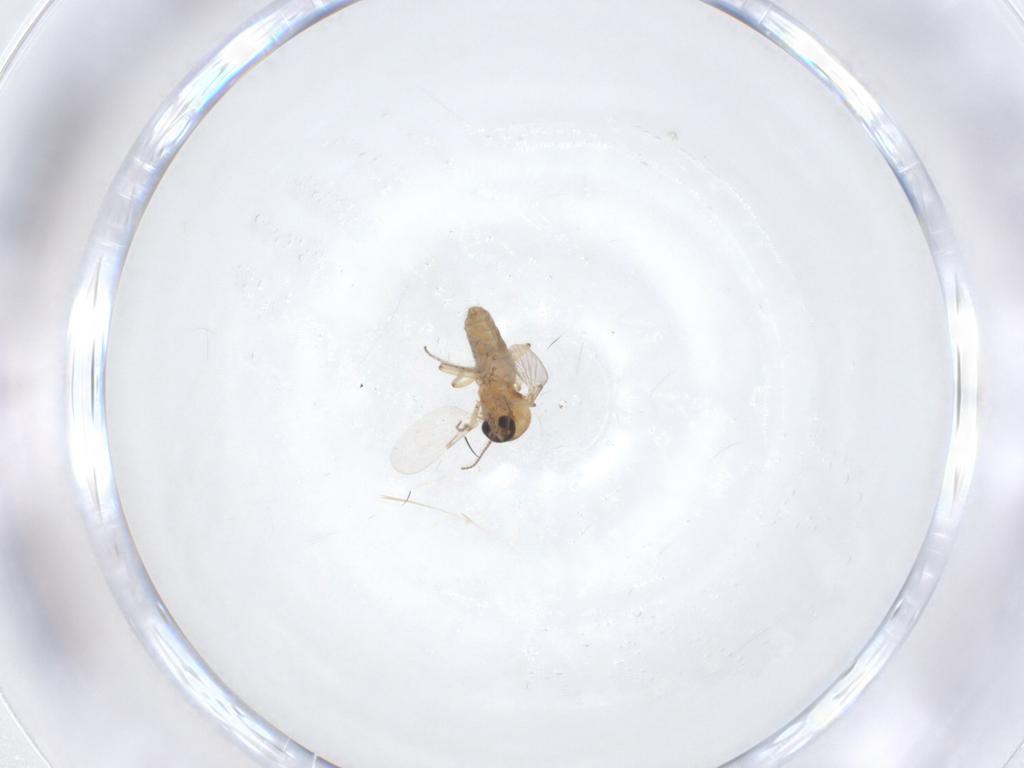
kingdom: Animalia
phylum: Arthropoda
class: Insecta
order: Diptera
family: Ceratopogonidae
